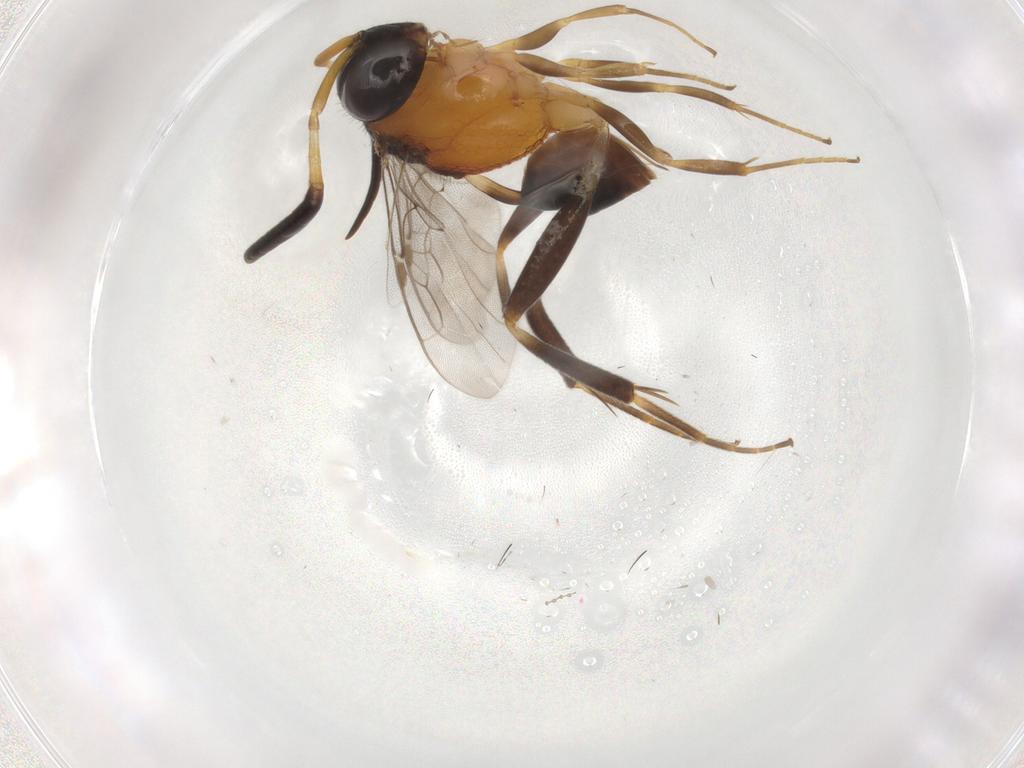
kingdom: Animalia
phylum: Arthropoda
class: Insecta
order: Hymenoptera
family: Evaniidae
